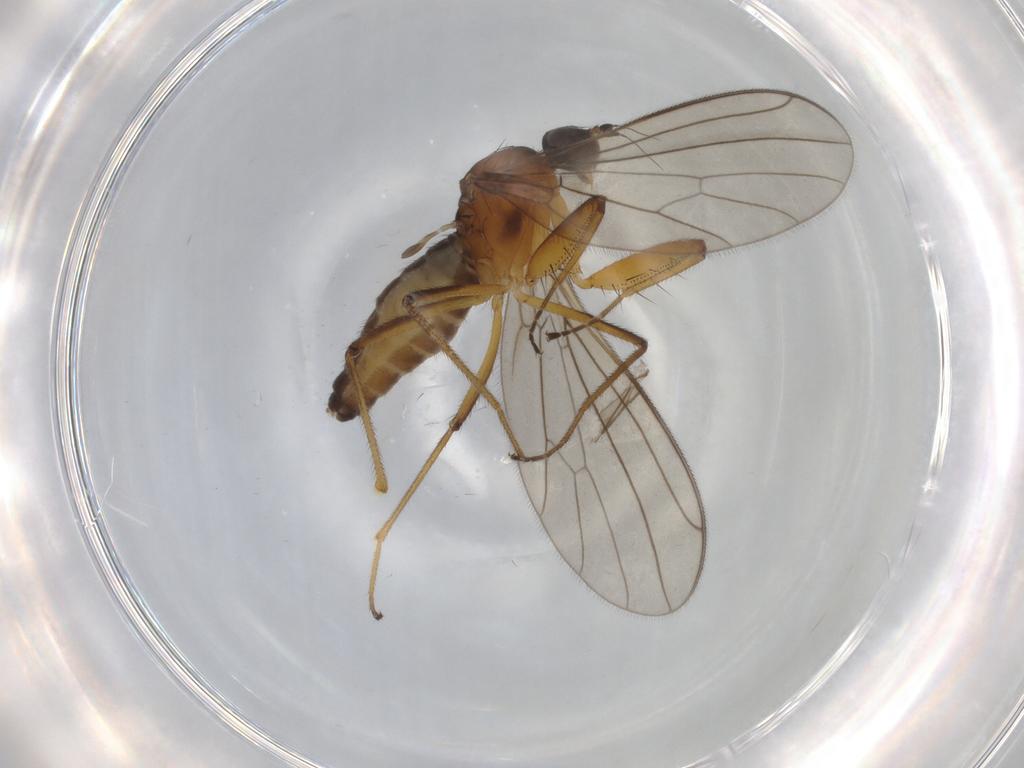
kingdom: Animalia
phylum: Arthropoda
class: Insecta
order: Diptera
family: Empididae
